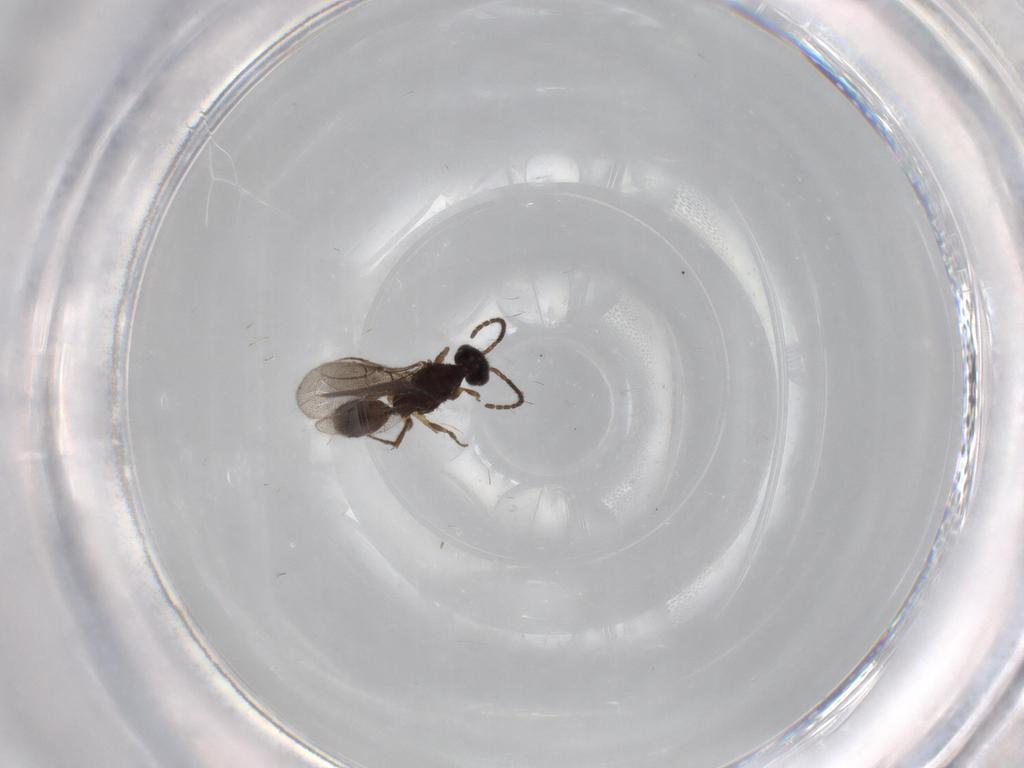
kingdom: Animalia
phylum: Arthropoda
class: Insecta
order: Hymenoptera
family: Bethylidae
